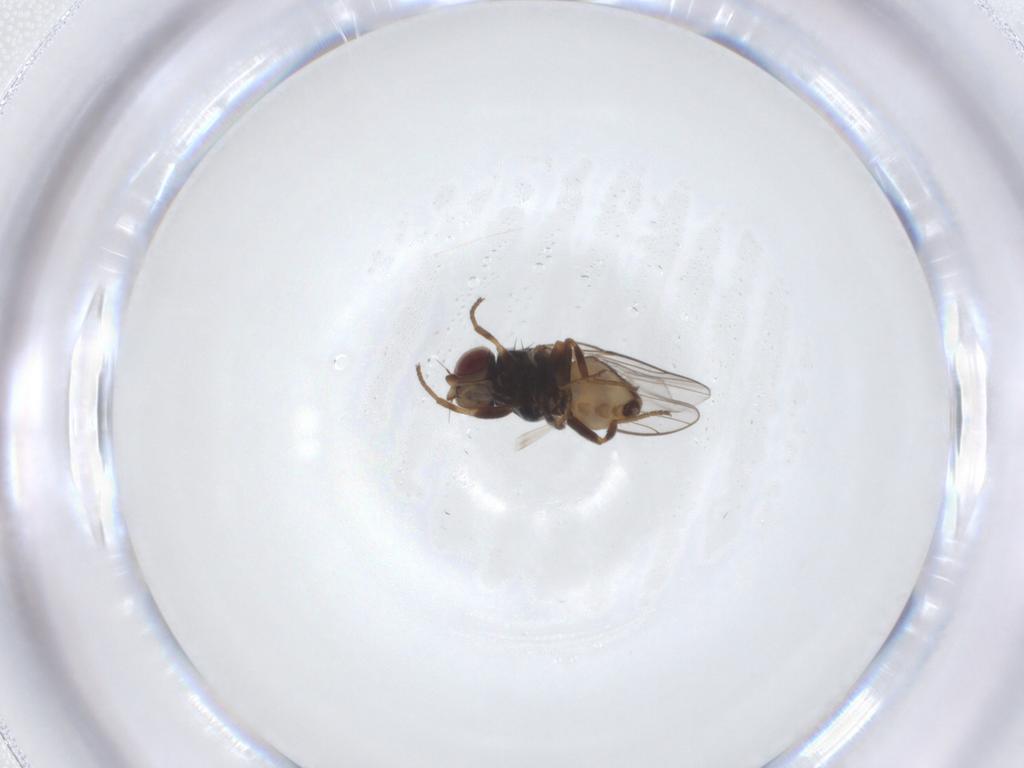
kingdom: Animalia
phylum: Arthropoda
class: Insecta
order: Diptera
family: Chloropidae
